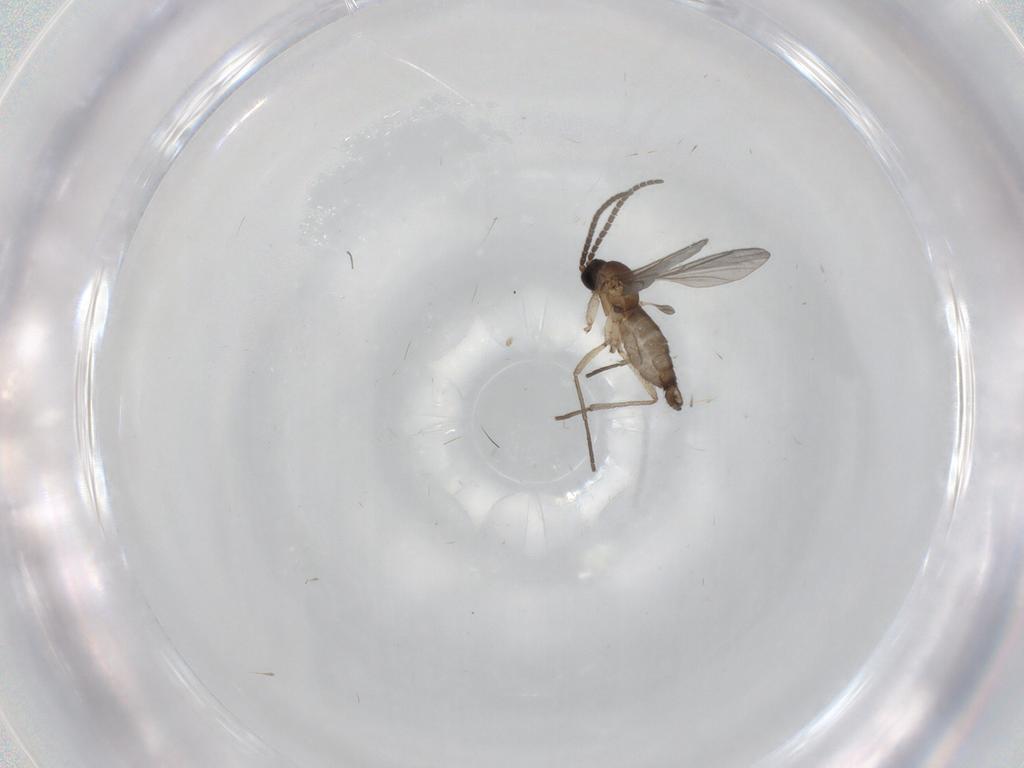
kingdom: Animalia
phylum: Arthropoda
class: Insecta
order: Diptera
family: Sciaridae
